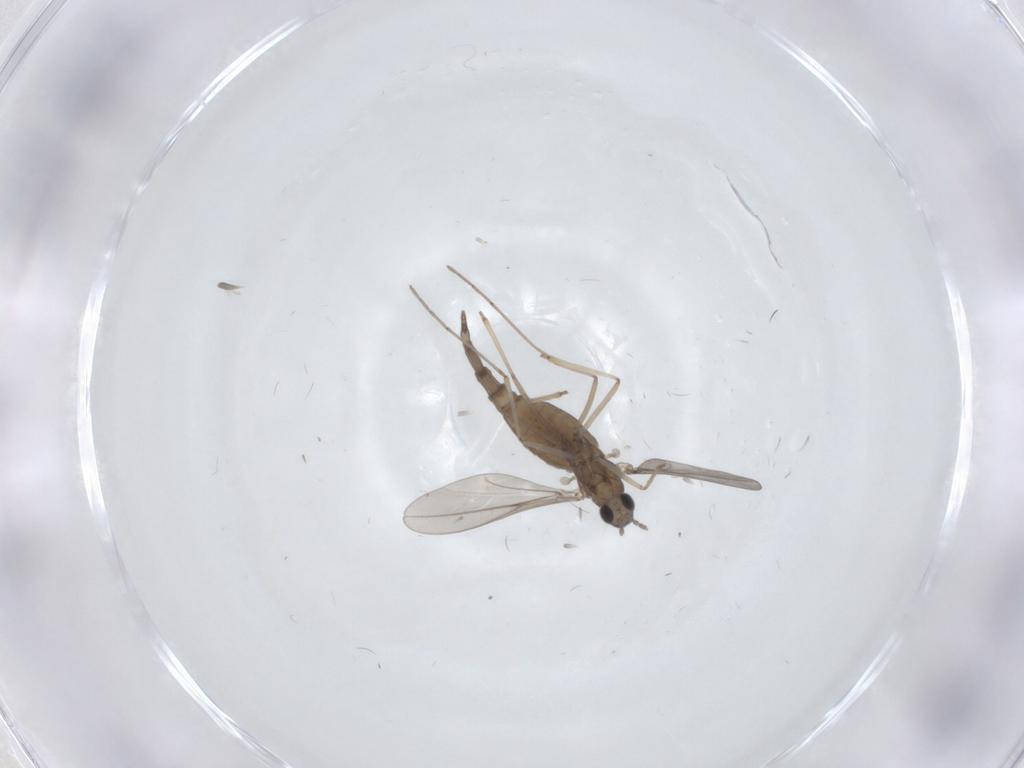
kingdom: Animalia
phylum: Arthropoda
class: Insecta
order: Diptera
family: Cecidomyiidae
